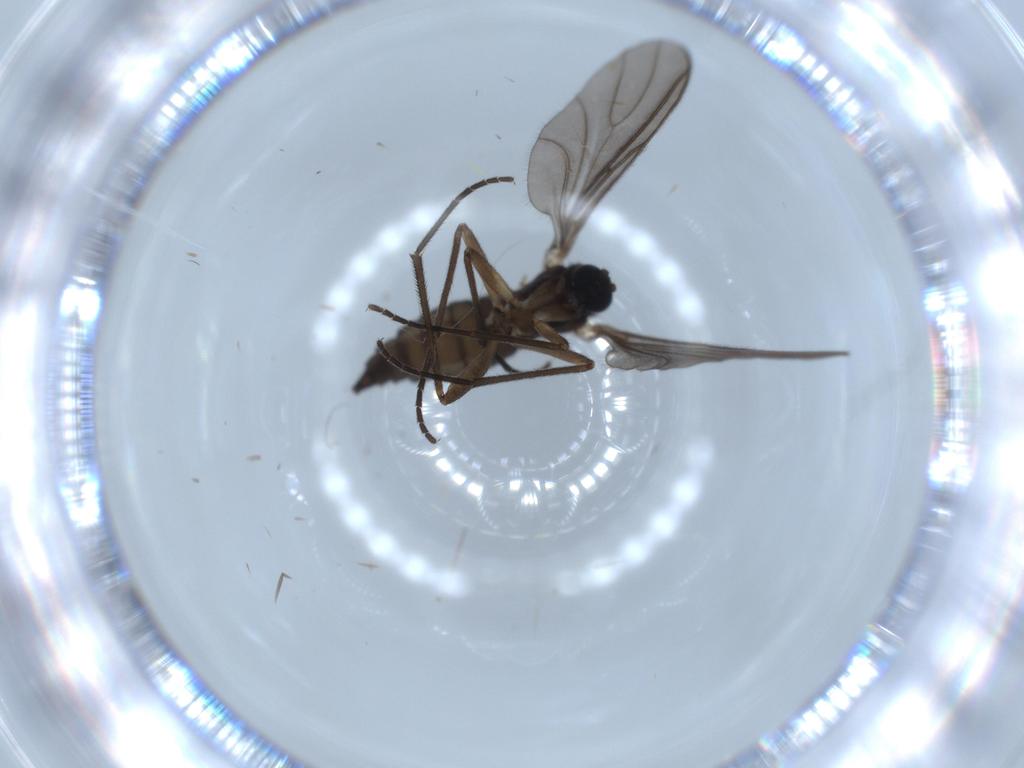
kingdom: Animalia
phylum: Arthropoda
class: Insecta
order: Diptera
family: Sciaridae
